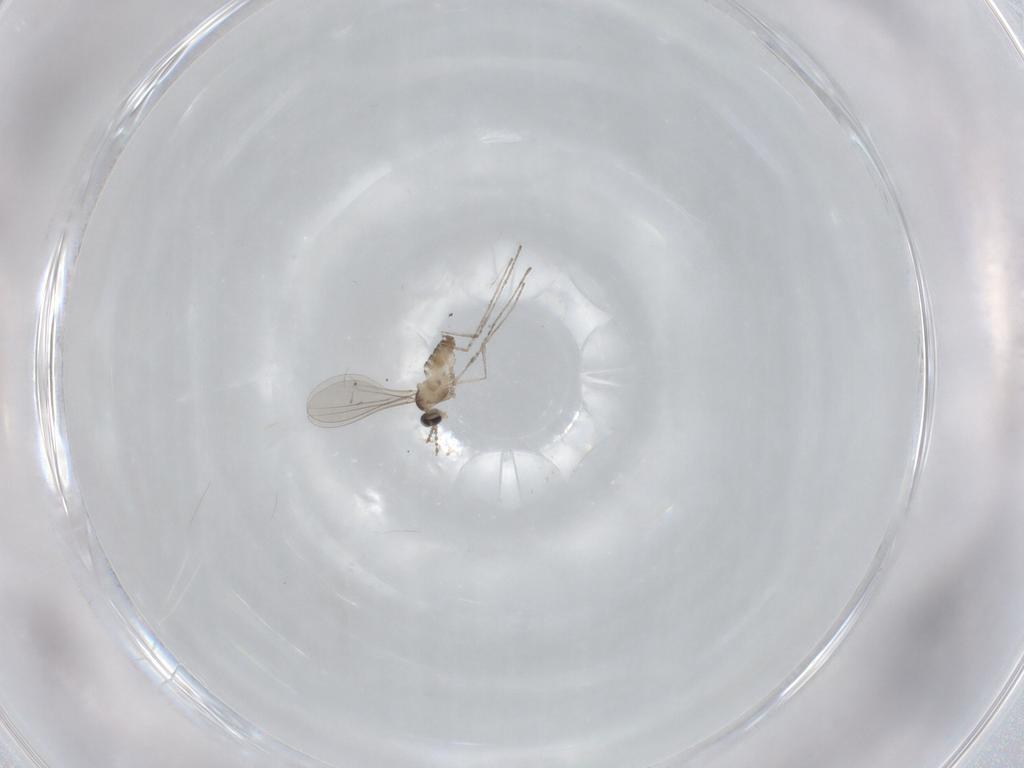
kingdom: Animalia
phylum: Arthropoda
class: Insecta
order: Diptera
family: Cecidomyiidae
